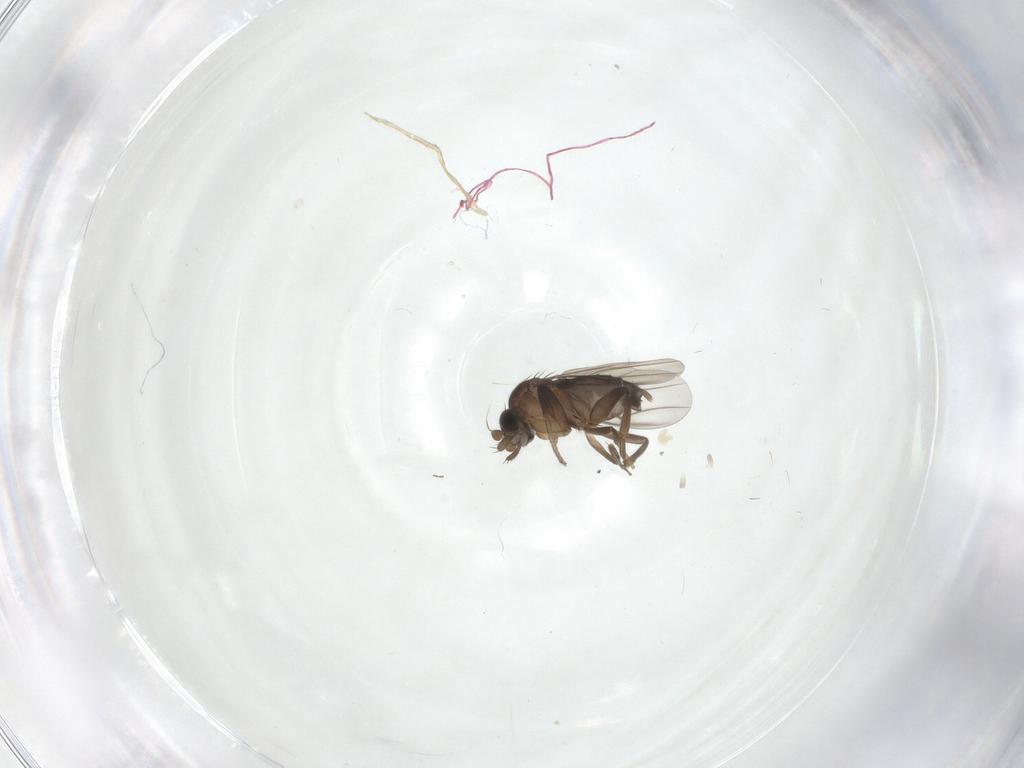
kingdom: Animalia
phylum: Arthropoda
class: Insecta
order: Diptera
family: Phoridae
